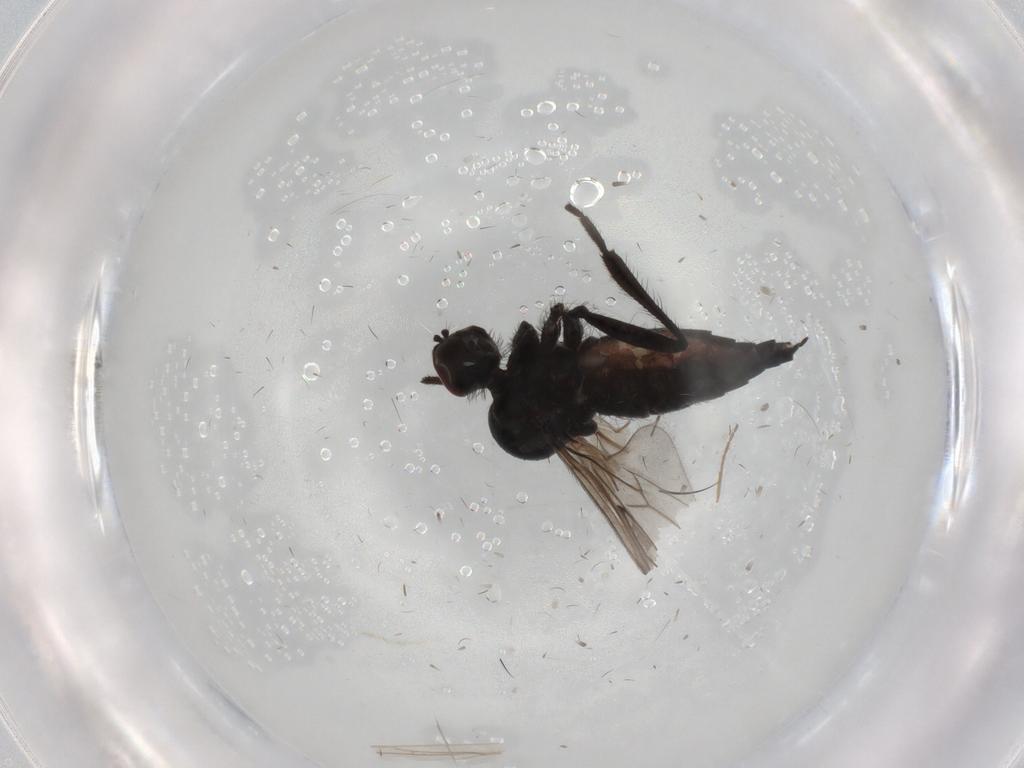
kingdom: Animalia
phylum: Arthropoda
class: Insecta
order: Diptera
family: Hybotidae
